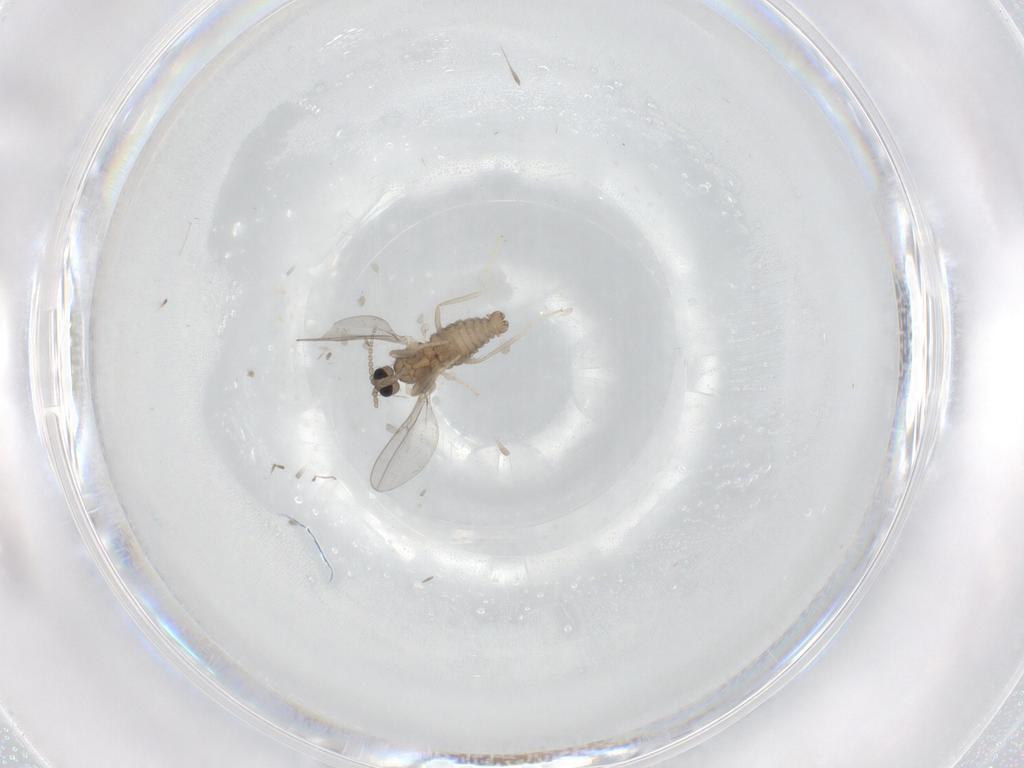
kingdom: Animalia
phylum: Arthropoda
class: Insecta
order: Diptera
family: Cecidomyiidae
